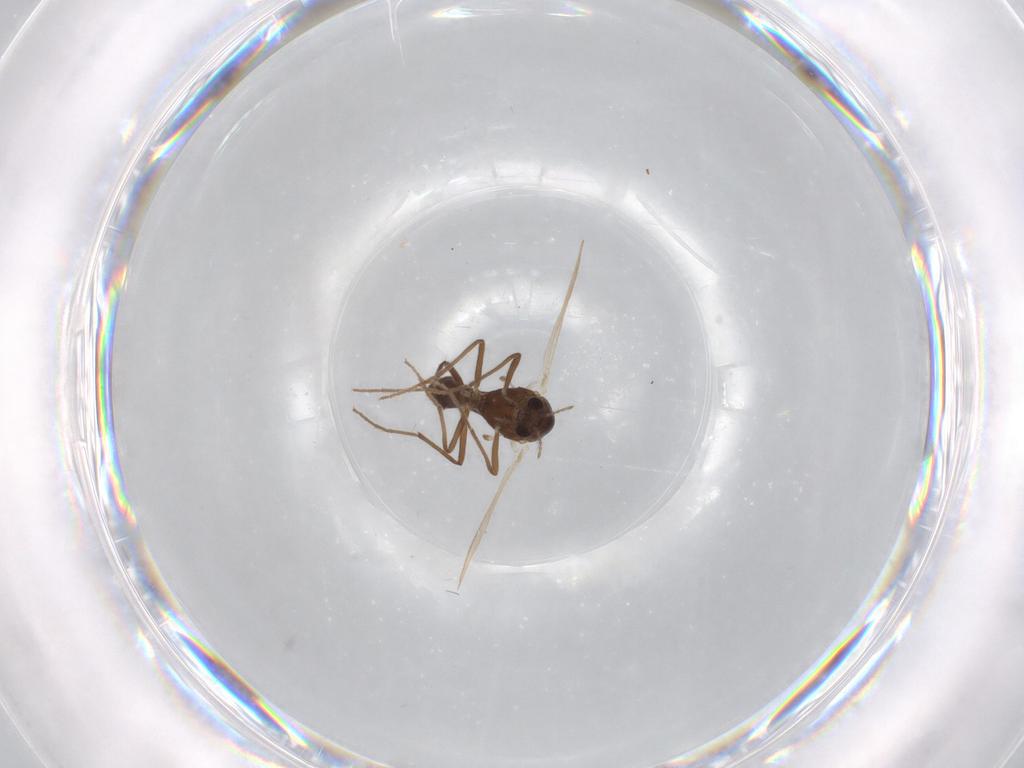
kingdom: Animalia
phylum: Arthropoda
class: Insecta
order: Diptera
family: Chironomidae
